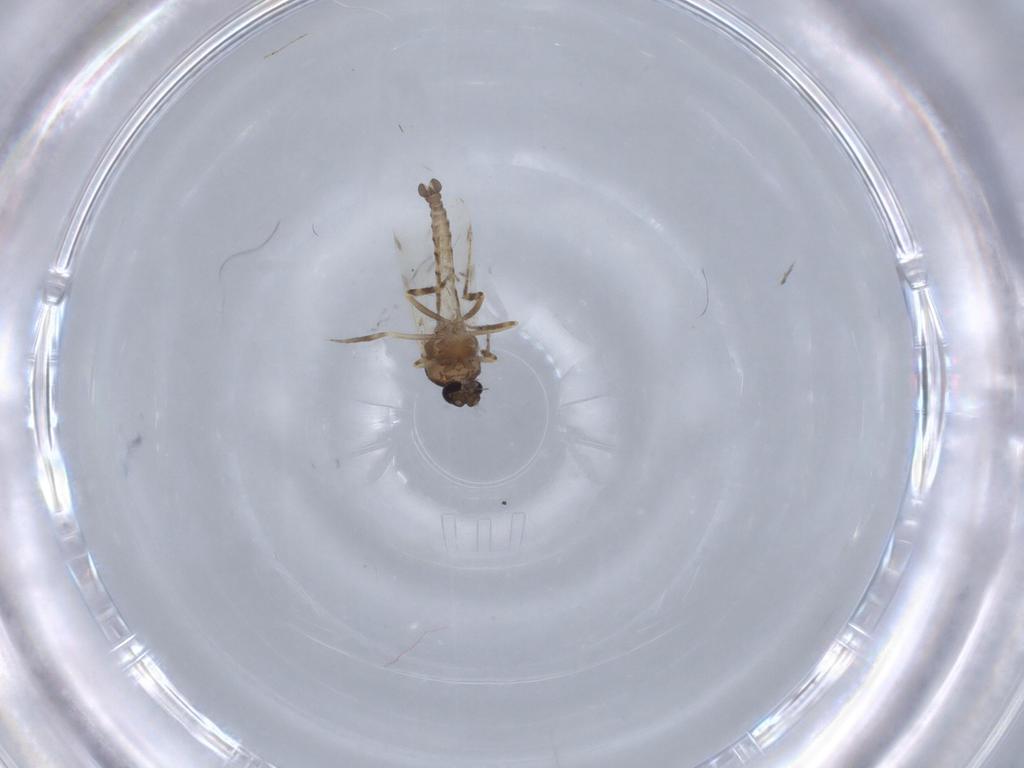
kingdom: Animalia
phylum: Arthropoda
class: Insecta
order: Diptera
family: Ceratopogonidae
